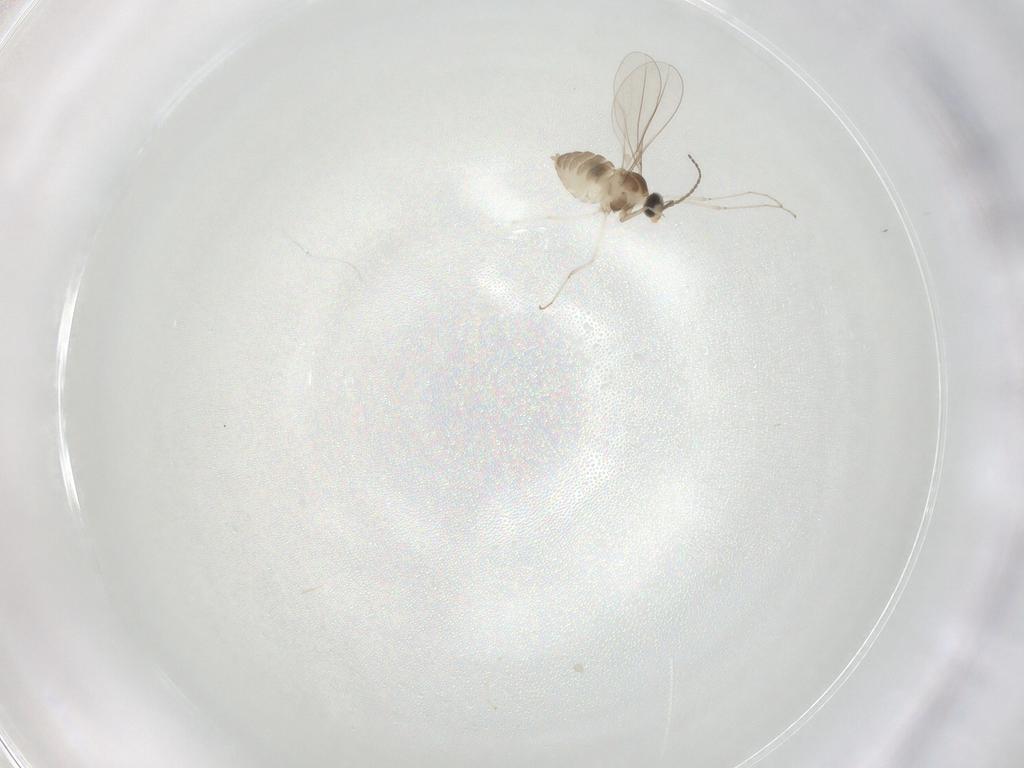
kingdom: Animalia
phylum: Arthropoda
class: Insecta
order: Diptera
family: Cecidomyiidae
